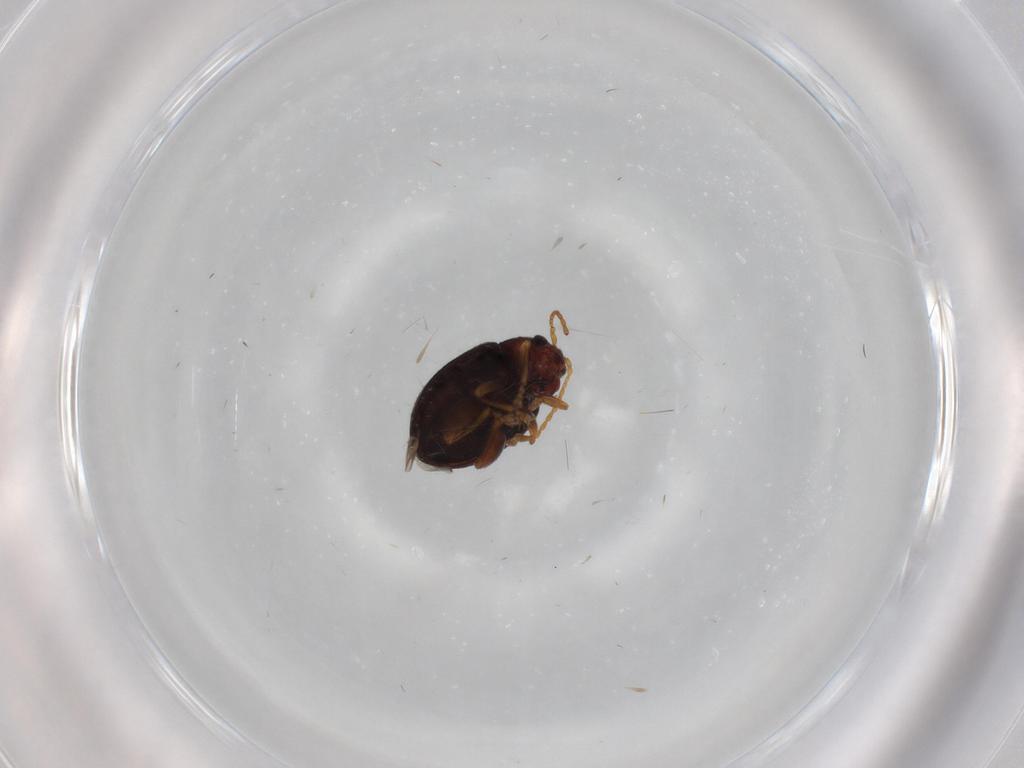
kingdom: Animalia
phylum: Arthropoda
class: Insecta
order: Coleoptera
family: Chrysomelidae
